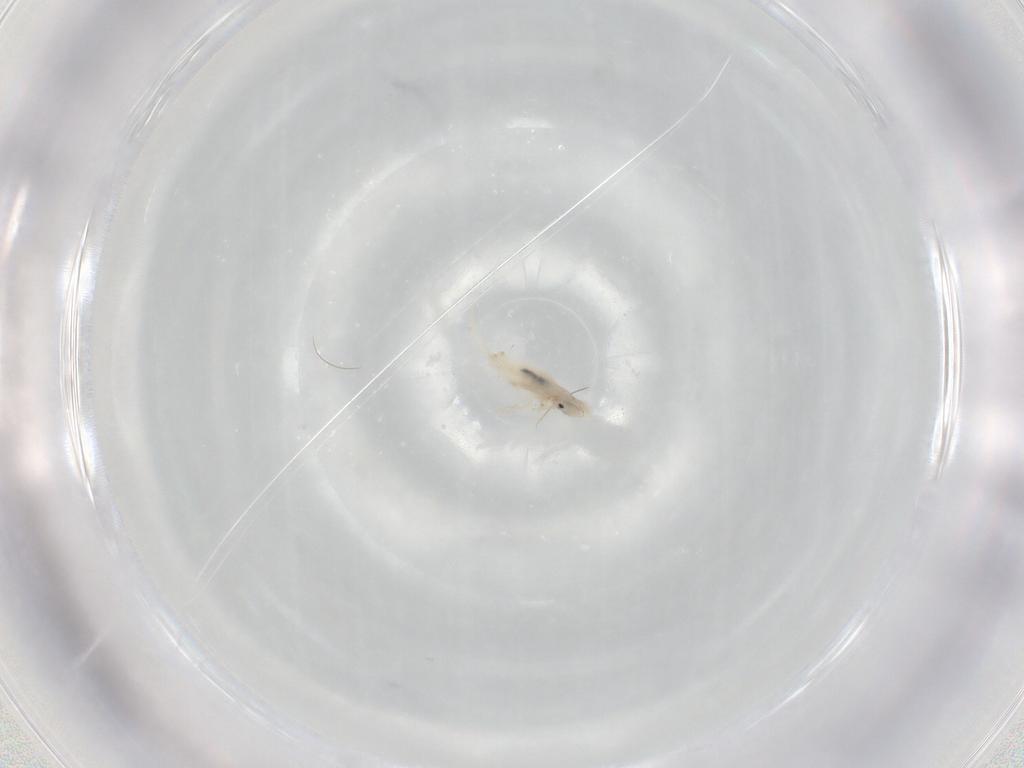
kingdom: Animalia
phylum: Arthropoda
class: Collembola
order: Entomobryomorpha
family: Entomobryidae
